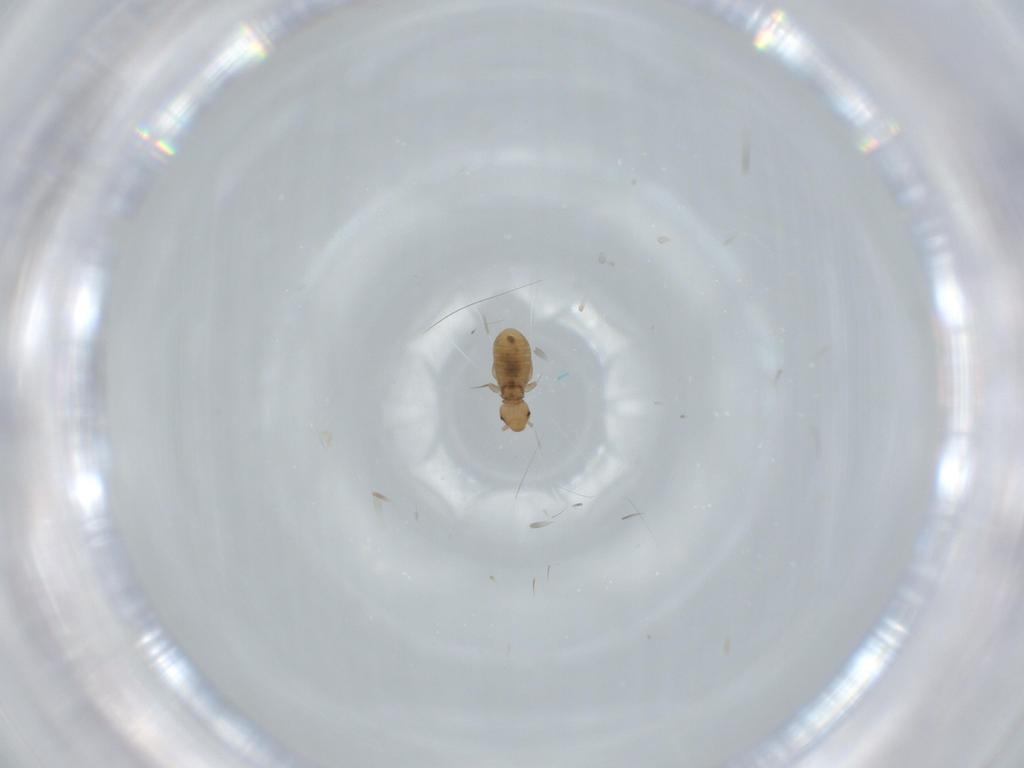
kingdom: Animalia
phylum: Arthropoda
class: Insecta
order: Psocodea
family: Liposcelididae
